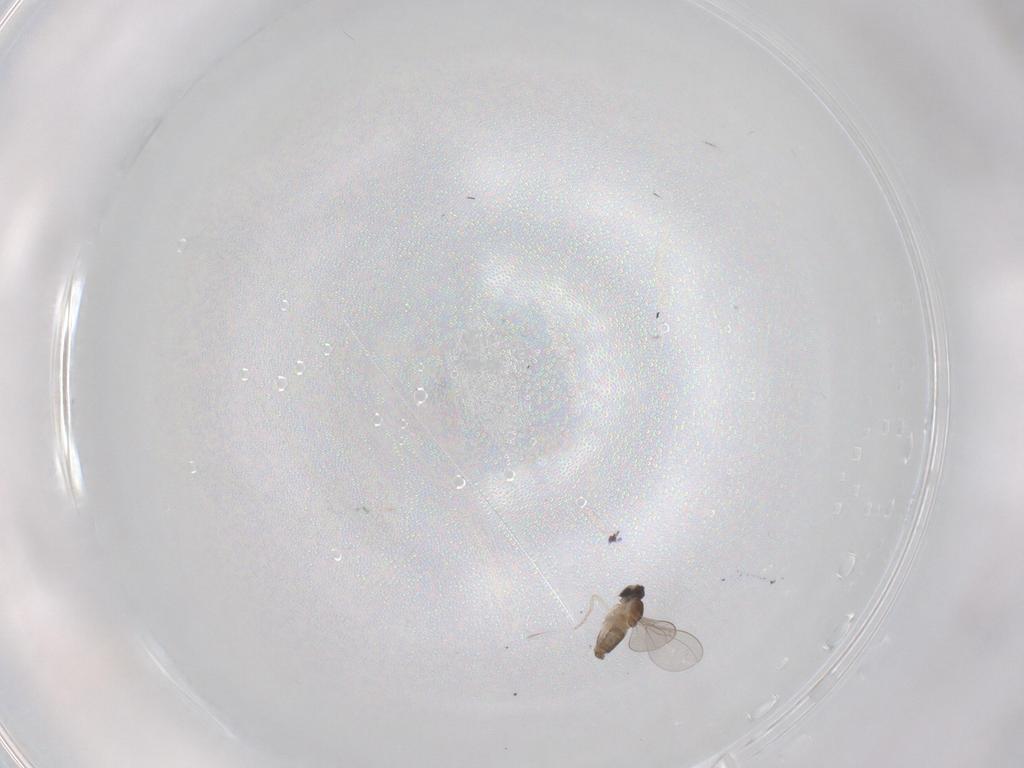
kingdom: Animalia
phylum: Arthropoda
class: Insecta
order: Diptera
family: Cecidomyiidae
